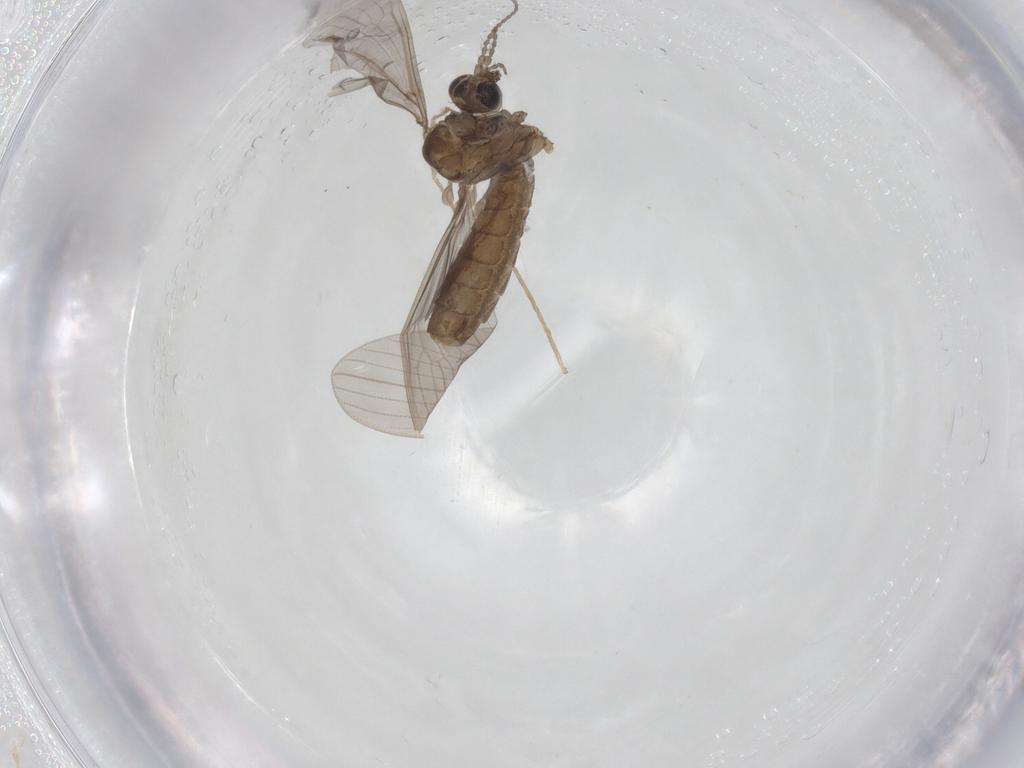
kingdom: Animalia
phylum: Arthropoda
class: Insecta
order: Diptera
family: Limoniidae
